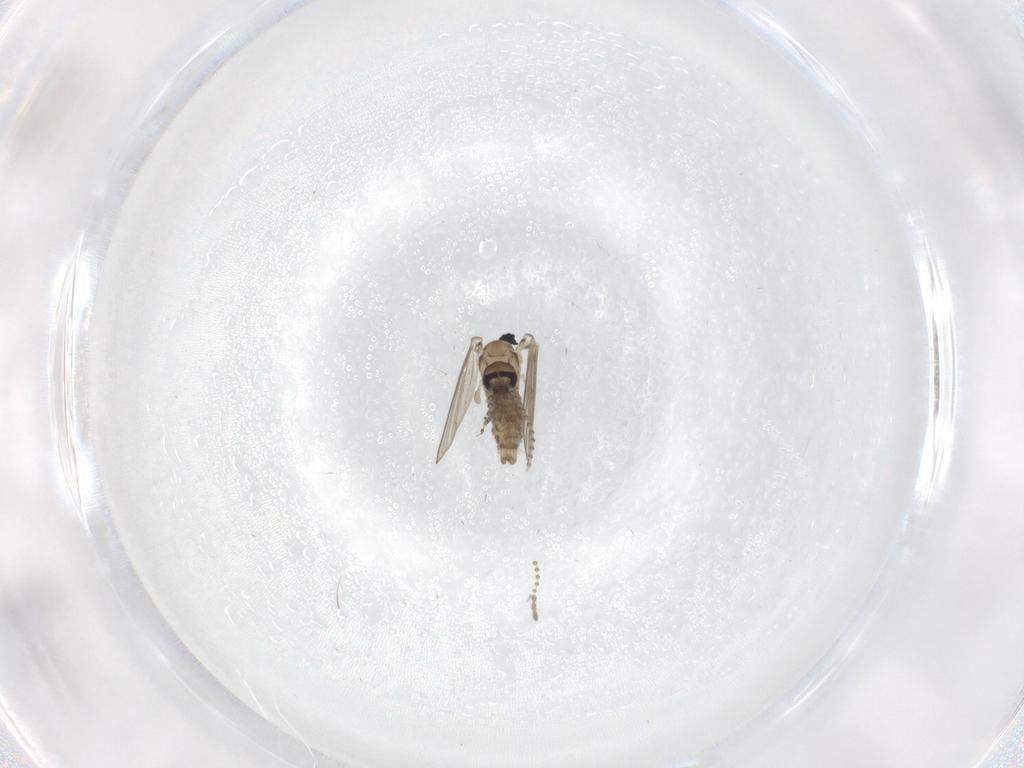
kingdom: Animalia
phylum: Arthropoda
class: Insecta
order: Diptera
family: Psychodidae
